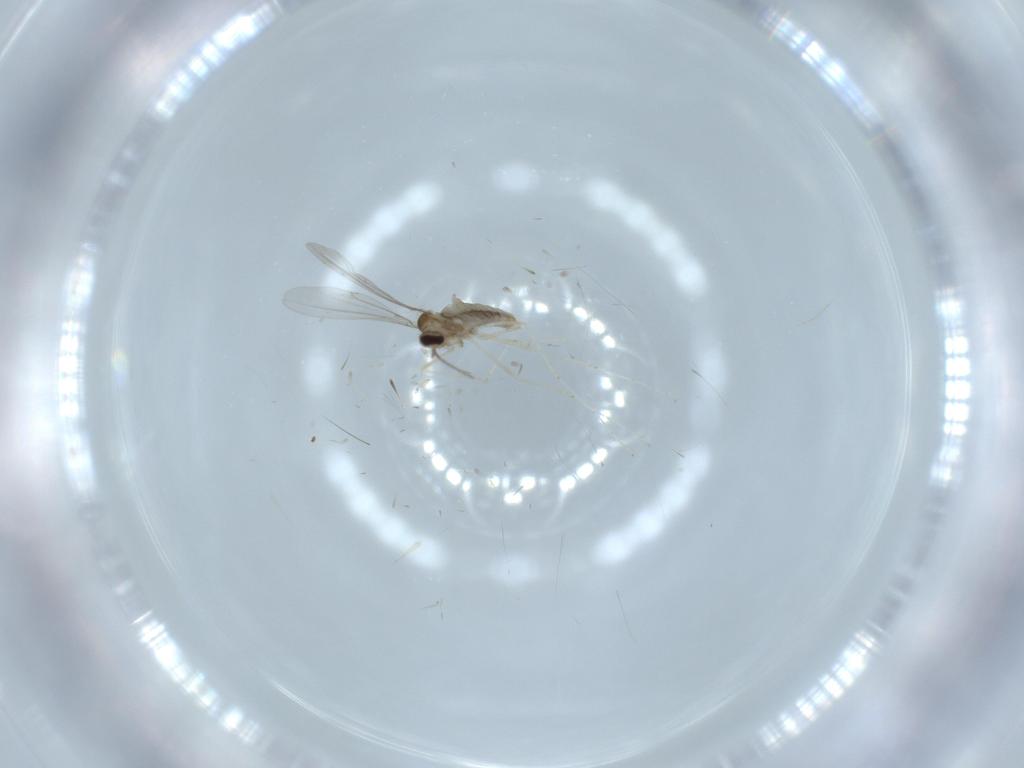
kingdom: Animalia
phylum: Arthropoda
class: Insecta
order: Diptera
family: Cecidomyiidae
